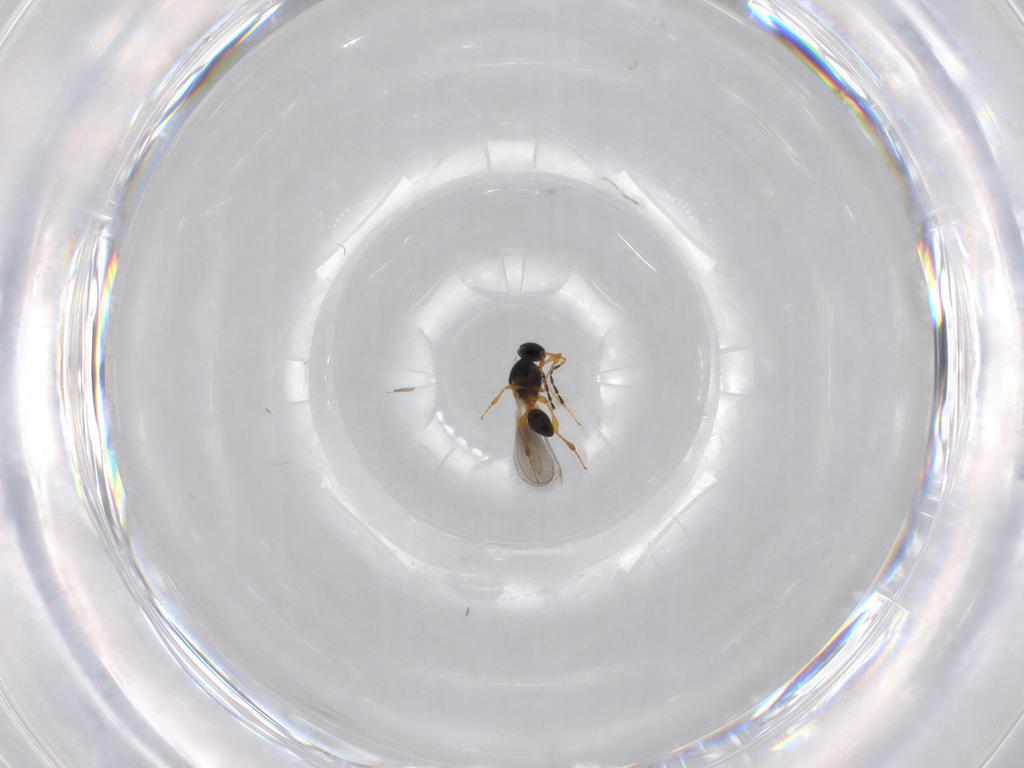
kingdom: Animalia
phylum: Arthropoda
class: Insecta
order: Hymenoptera
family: Platygastridae
